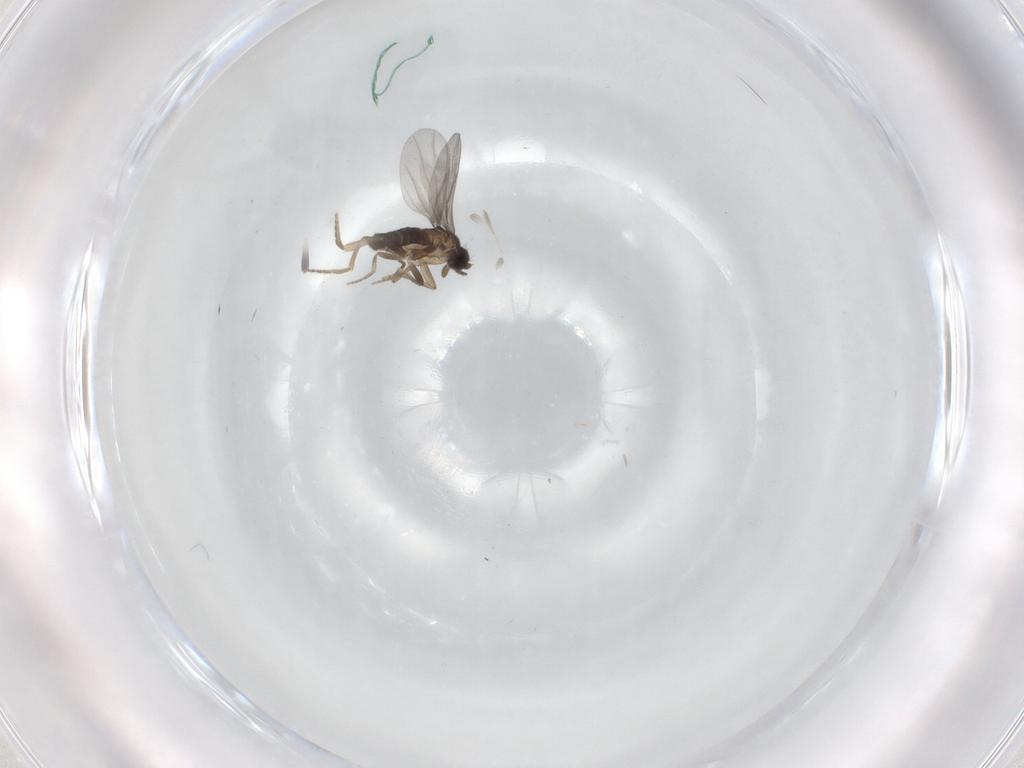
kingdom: Animalia
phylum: Arthropoda
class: Insecta
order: Diptera
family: Ceratopogonidae
